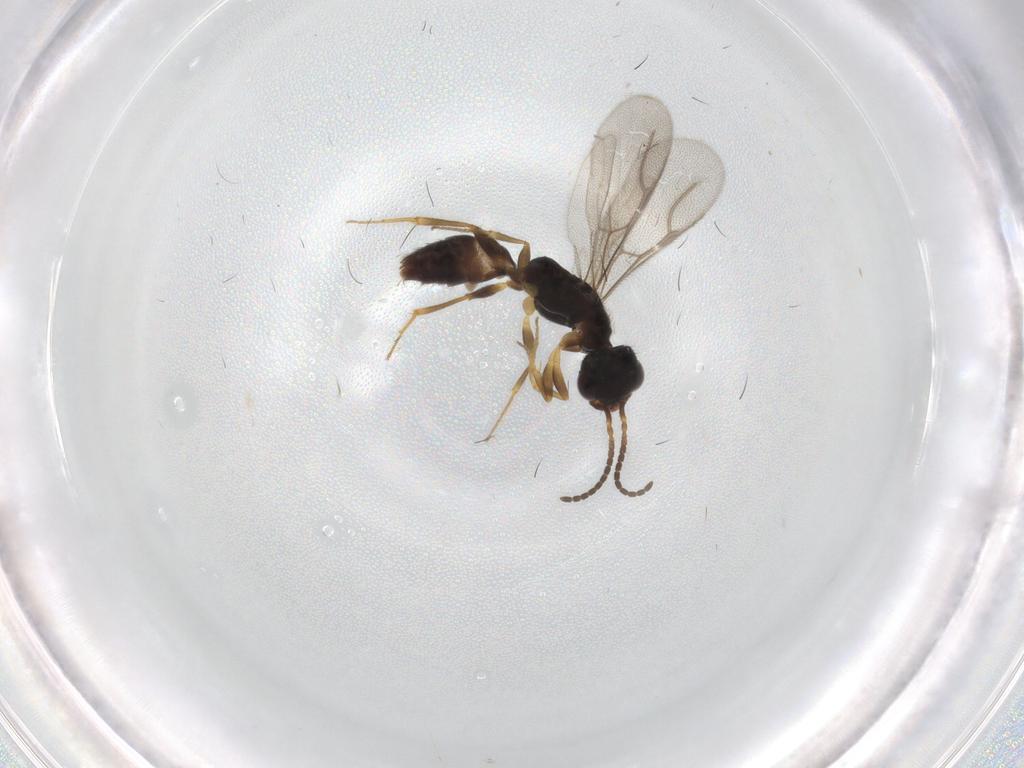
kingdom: Animalia
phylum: Arthropoda
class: Insecta
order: Hymenoptera
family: Bethylidae
